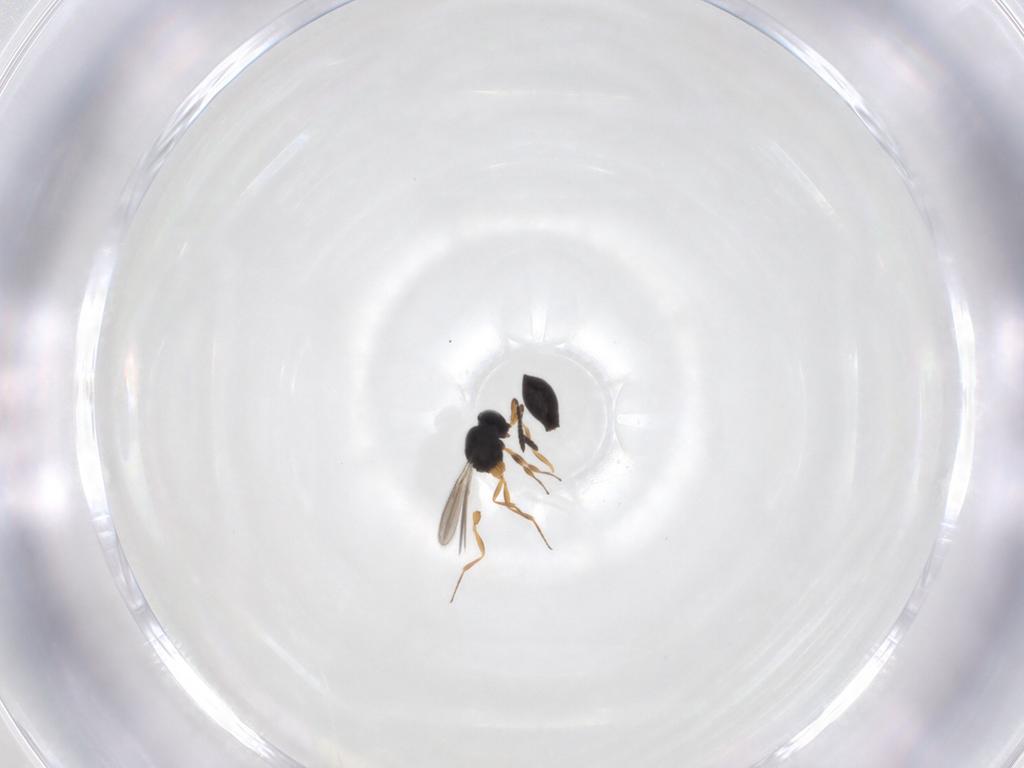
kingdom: Animalia
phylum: Arthropoda
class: Insecta
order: Hymenoptera
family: Scelionidae
